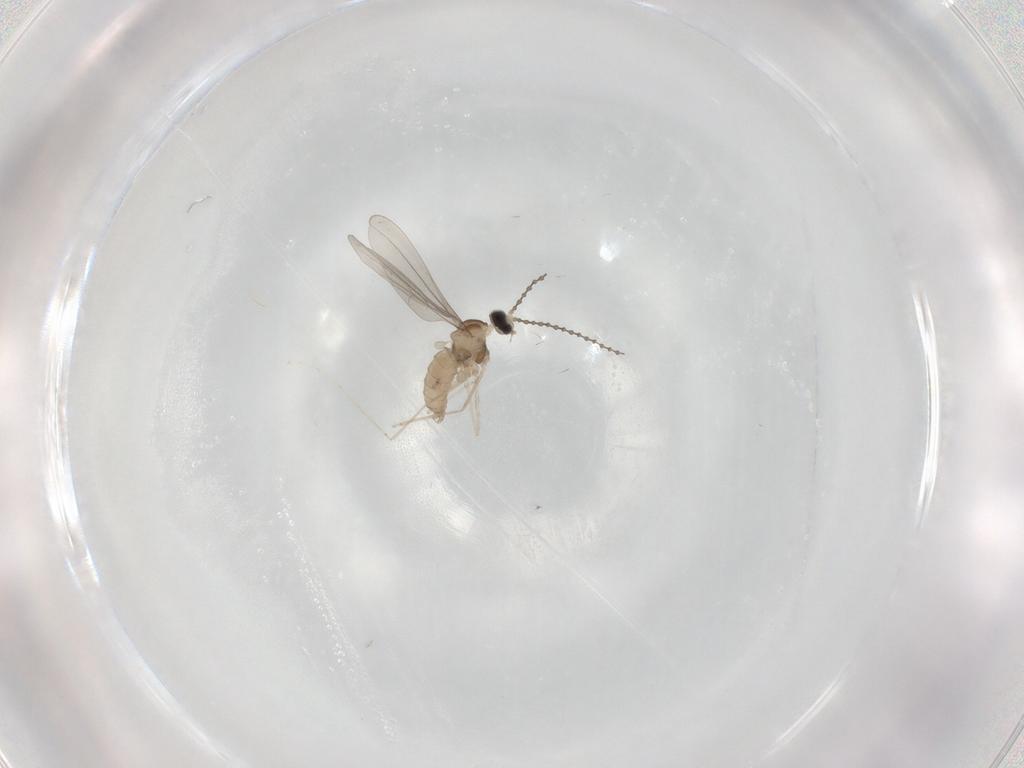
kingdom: Animalia
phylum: Arthropoda
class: Insecta
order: Diptera
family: Cecidomyiidae
